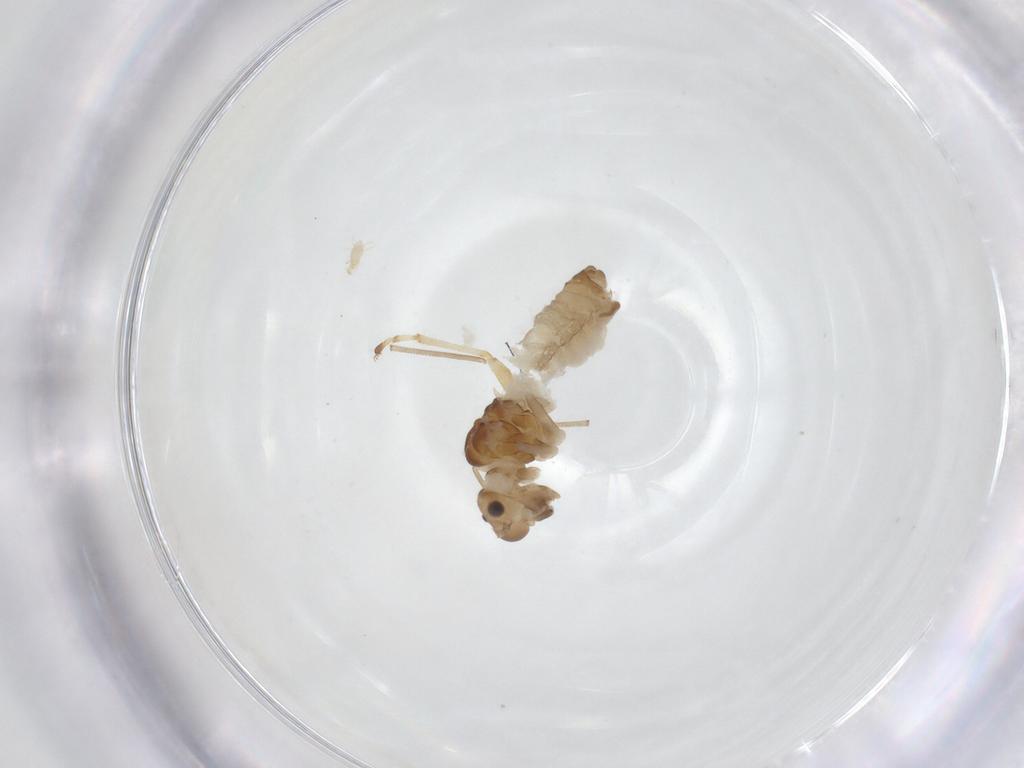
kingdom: Animalia
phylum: Arthropoda
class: Insecta
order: Psocodea
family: Philotarsidae
